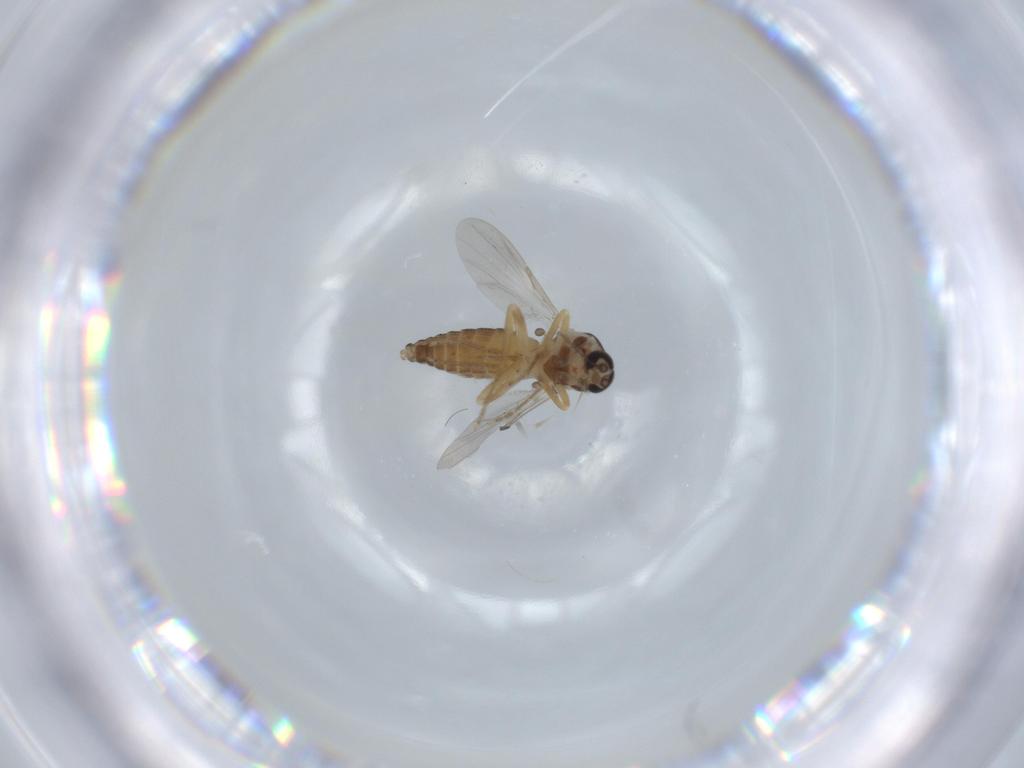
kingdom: Animalia
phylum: Arthropoda
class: Insecta
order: Diptera
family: Ceratopogonidae
